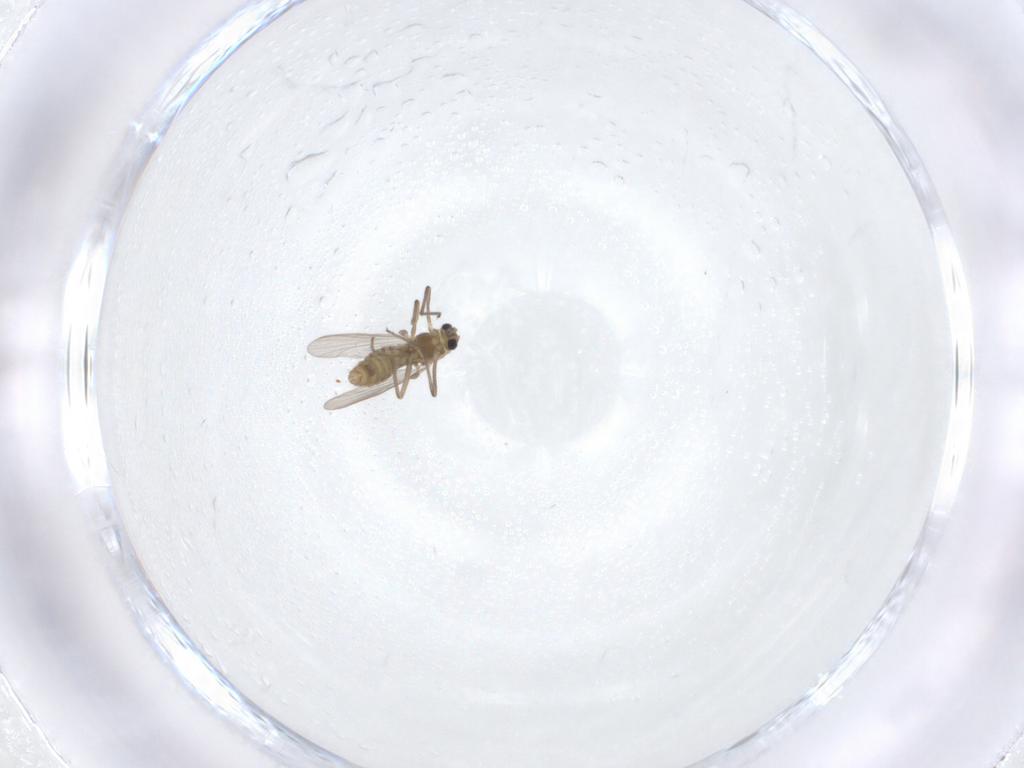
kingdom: Animalia
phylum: Arthropoda
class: Insecta
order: Diptera
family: Chironomidae
